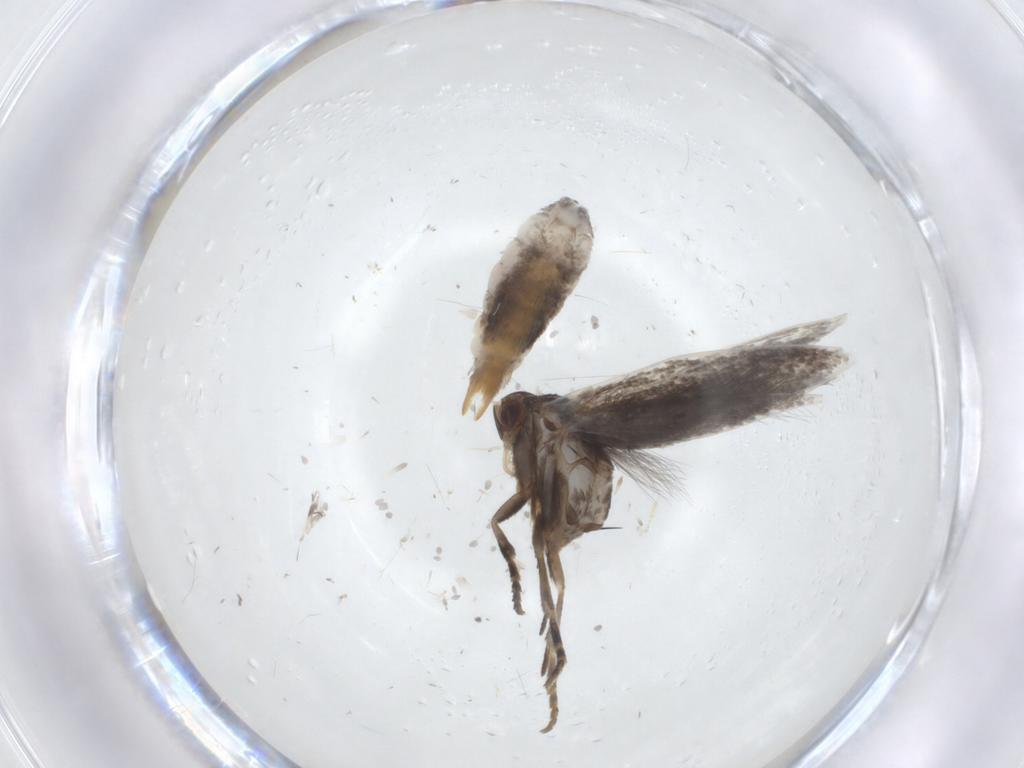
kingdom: Animalia
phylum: Arthropoda
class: Insecta
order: Lepidoptera
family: Elachistidae
